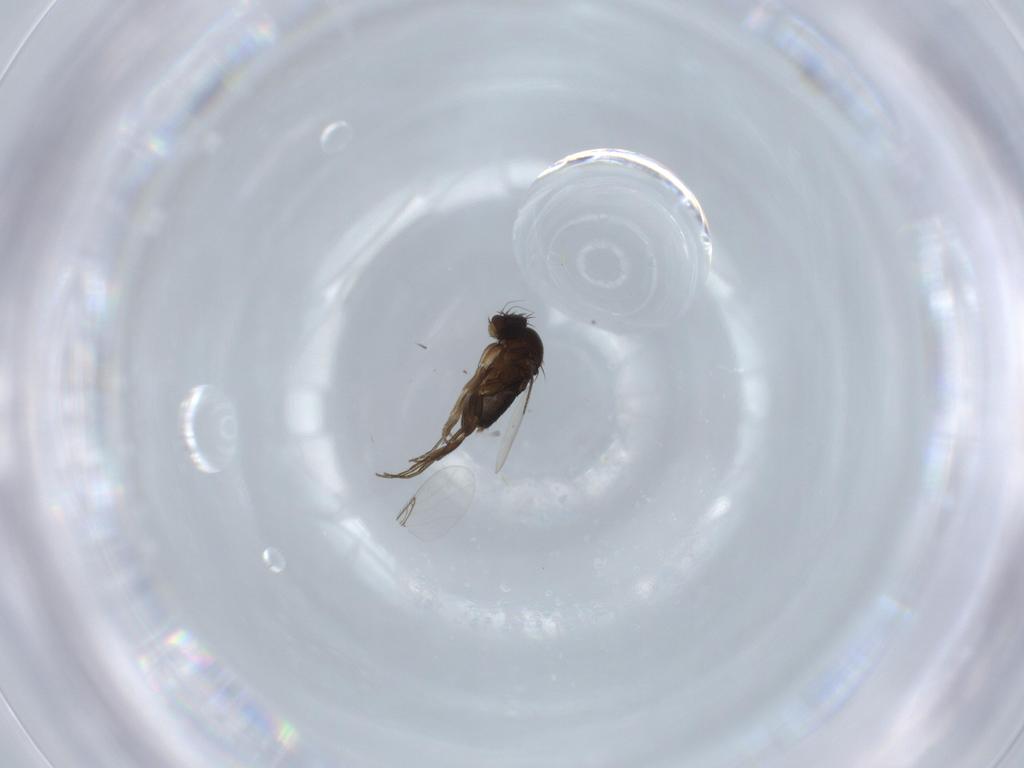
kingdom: Animalia
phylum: Arthropoda
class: Insecta
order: Diptera
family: Phoridae
